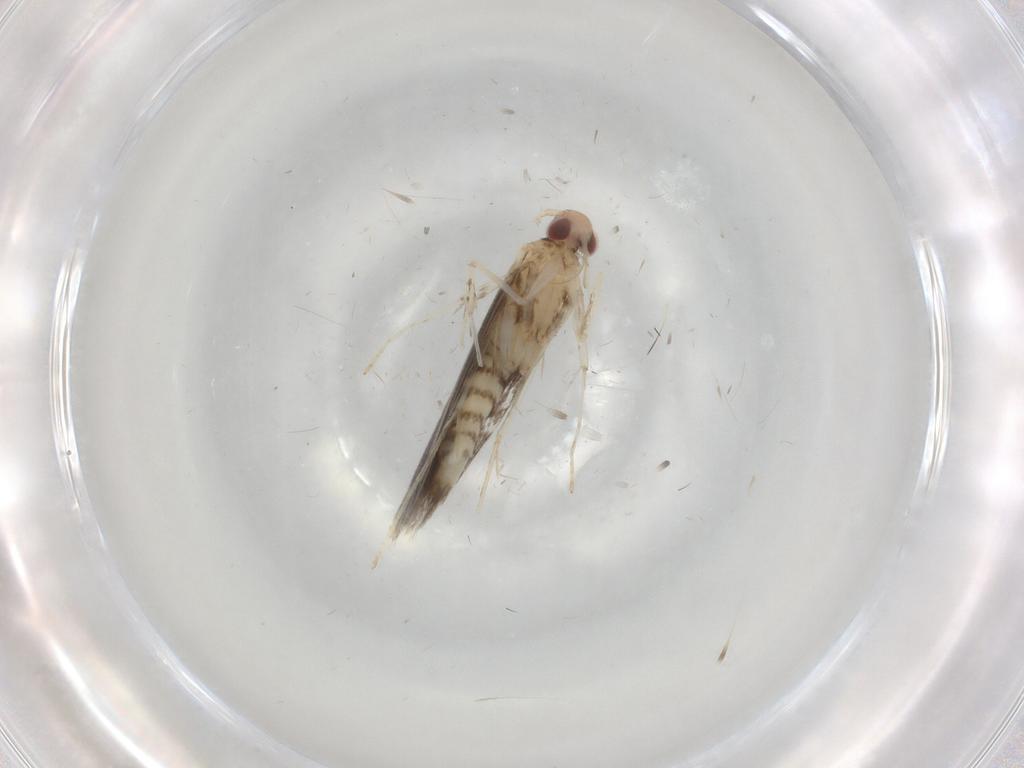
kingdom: Animalia
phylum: Arthropoda
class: Insecta
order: Lepidoptera
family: Gracillariidae
